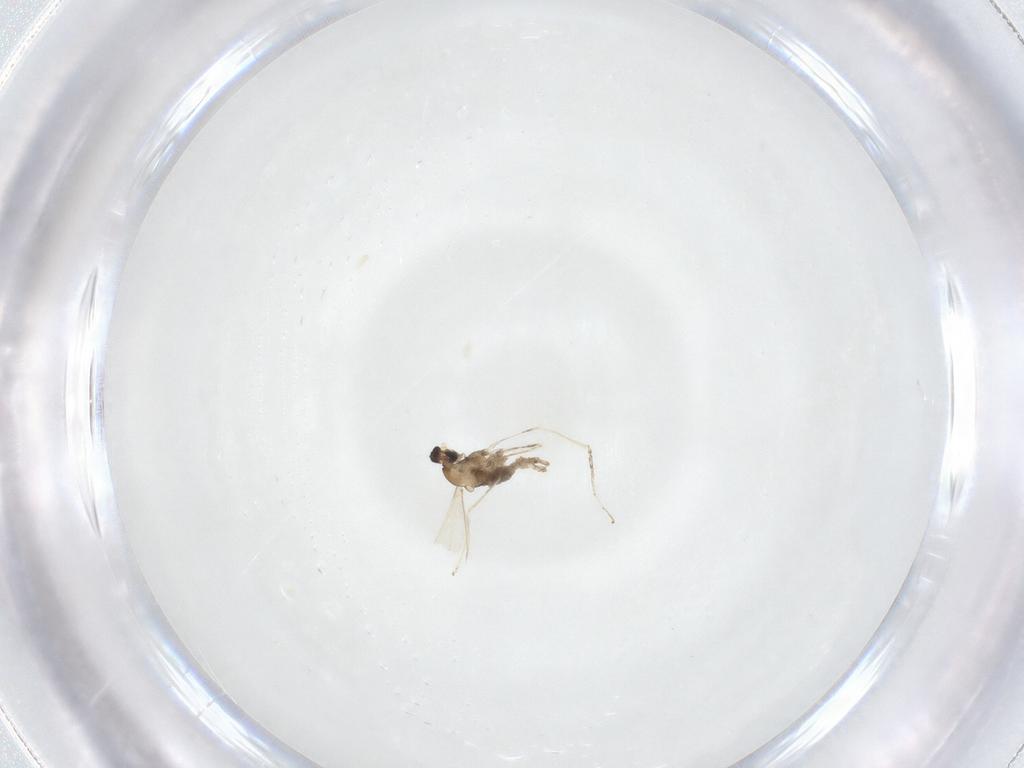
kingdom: Animalia
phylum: Arthropoda
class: Insecta
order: Diptera
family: Cecidomyiidae
